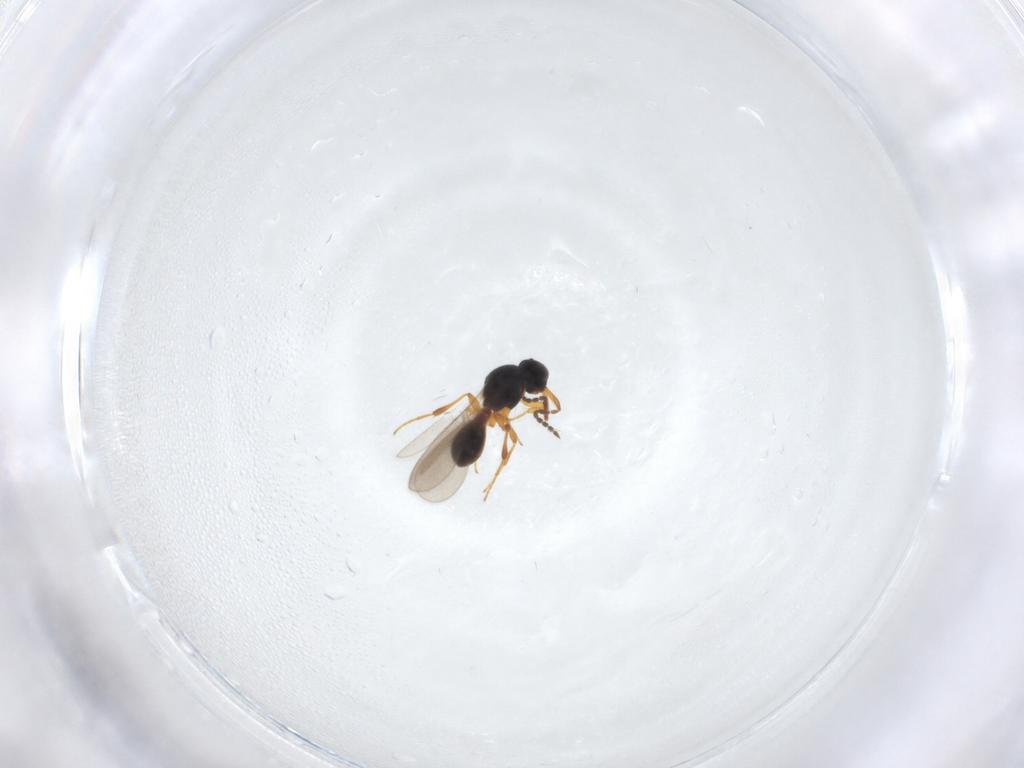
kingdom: Animalia
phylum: Arthropoda
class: Insecta
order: Hymenoptera
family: Platygastridae
